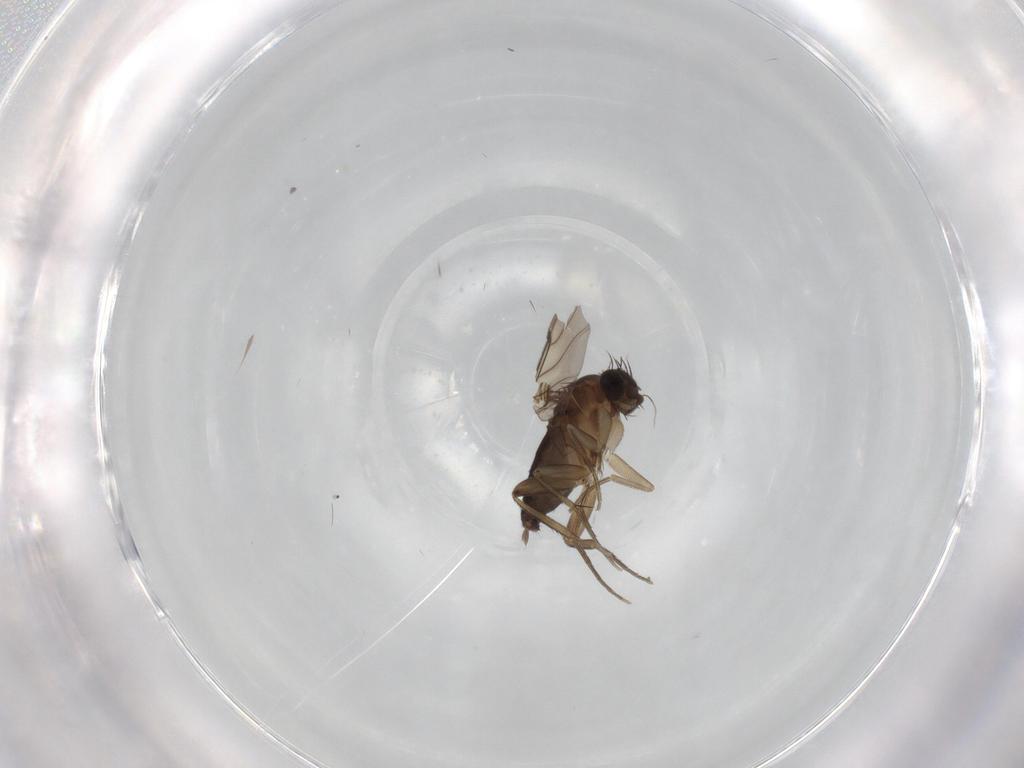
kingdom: Animalia
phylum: Arthropoda
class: Insecta
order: Diptera
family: Phoridae
